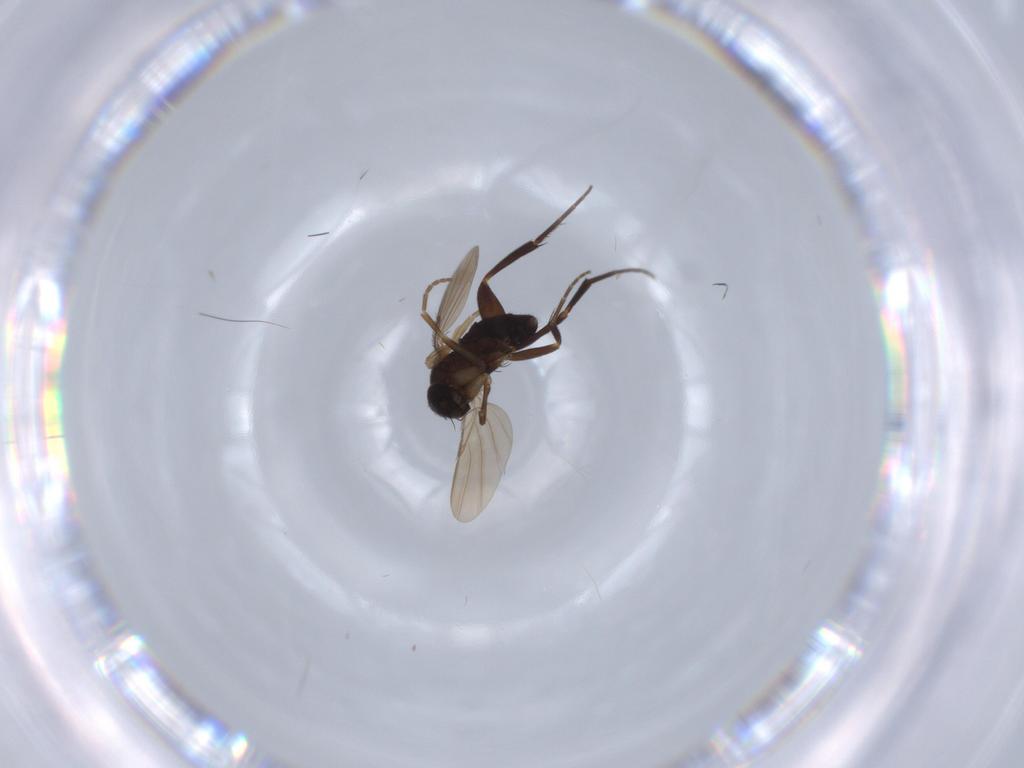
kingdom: Animalia
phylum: Arthropoda
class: Insecta
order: Diptera
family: Phoridae
